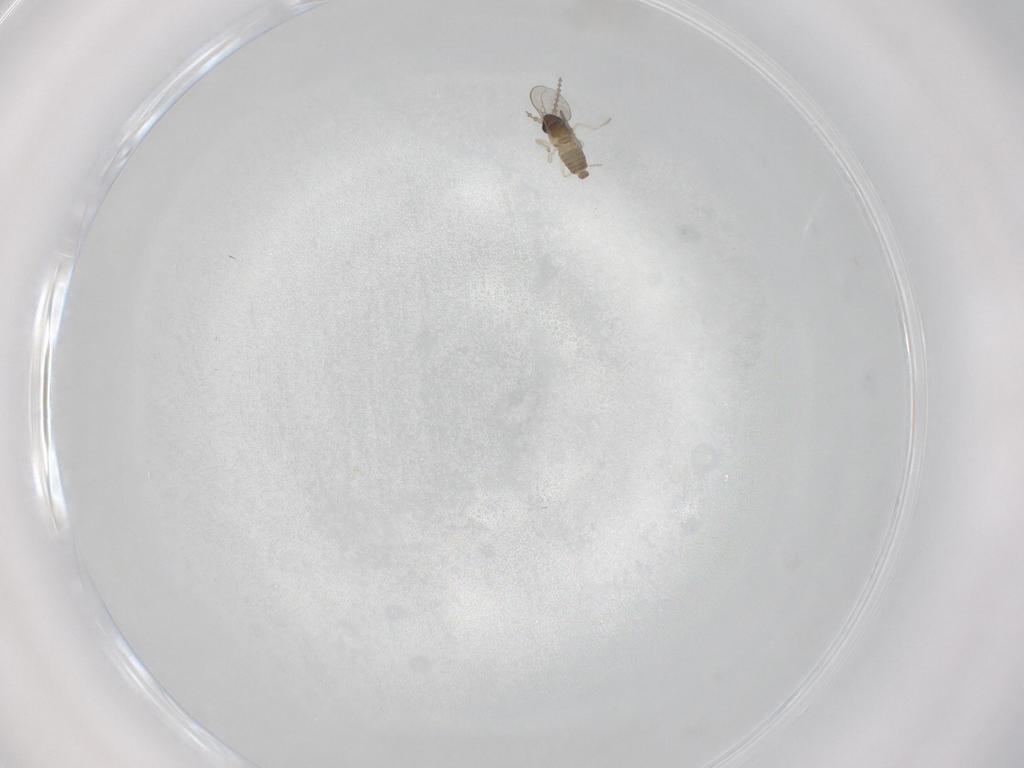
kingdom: Animalia
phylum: Arthropoda
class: Insecta
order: Diptera
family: Cecidomyiidae
